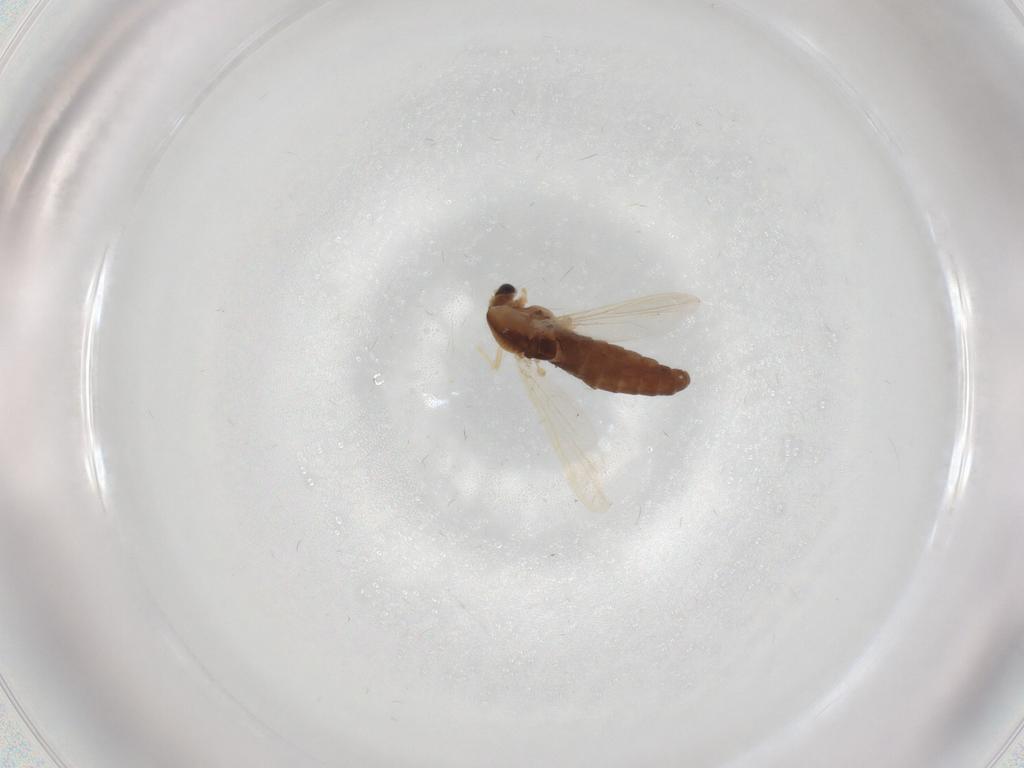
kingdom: Animalia
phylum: Arthropoda
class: Insecta
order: Diptera
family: Chironomidae
